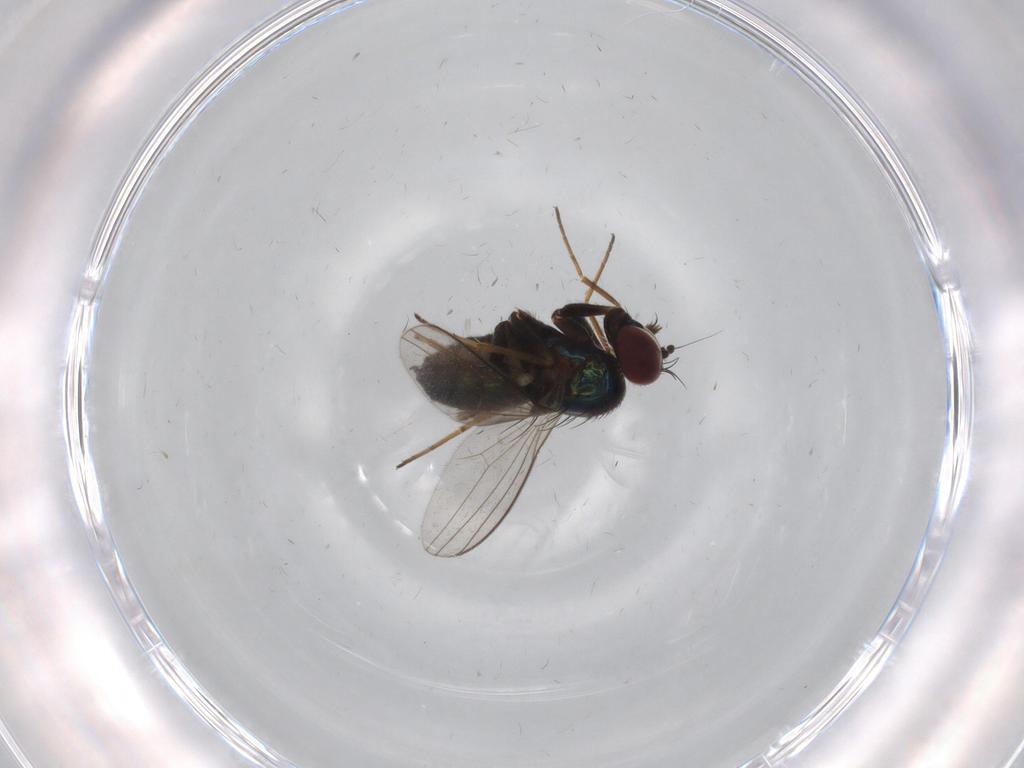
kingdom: Animalia
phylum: Arthropoda
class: Insecta
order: Diptera
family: Dolichopodidae
